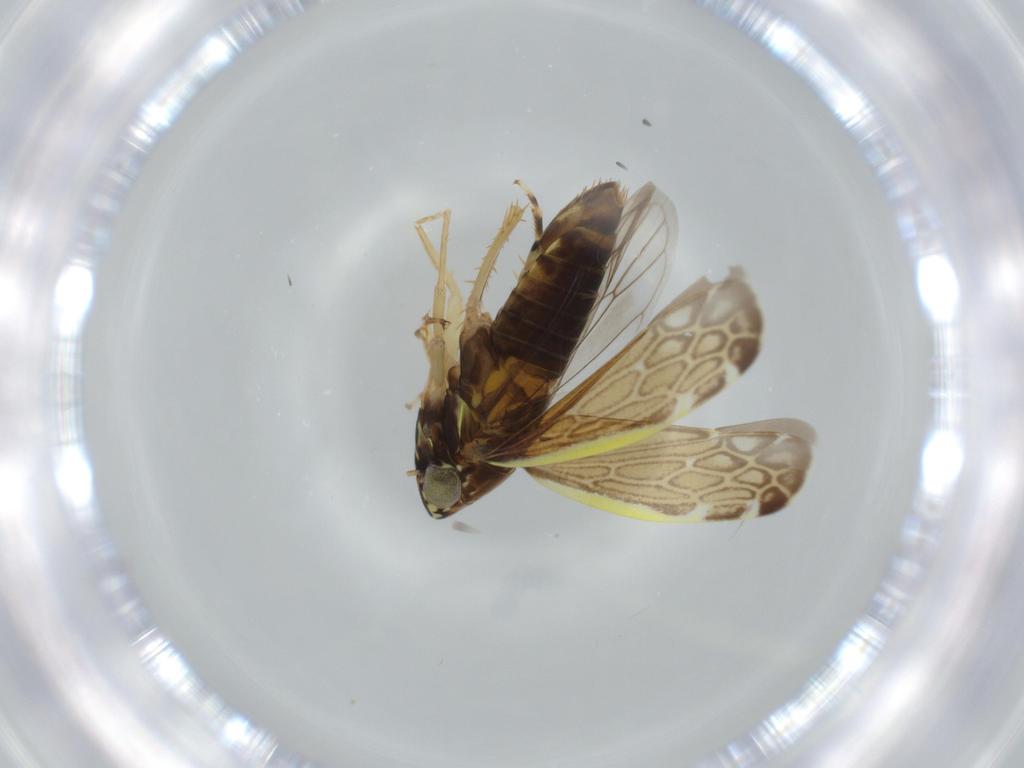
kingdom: Animalia
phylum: Arthropoda
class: Insecta
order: Hemiptera
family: Cicadellidae
